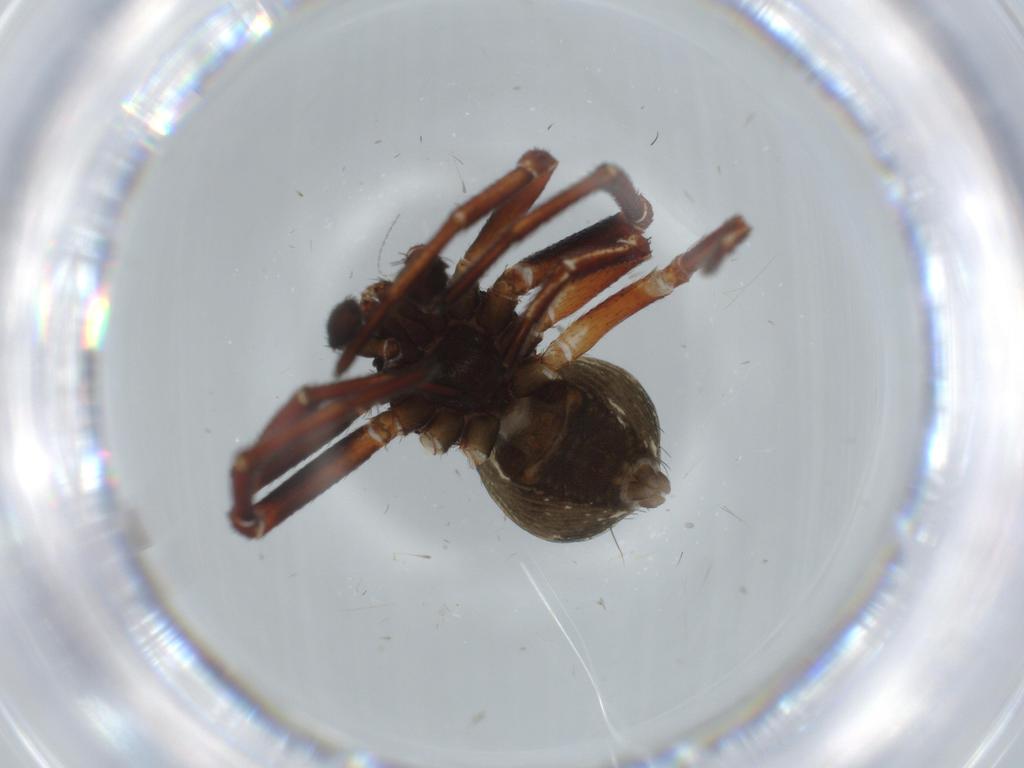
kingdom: Animalia
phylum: Arthropoda
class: Arachnida
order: Araneae
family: Thomisidae
